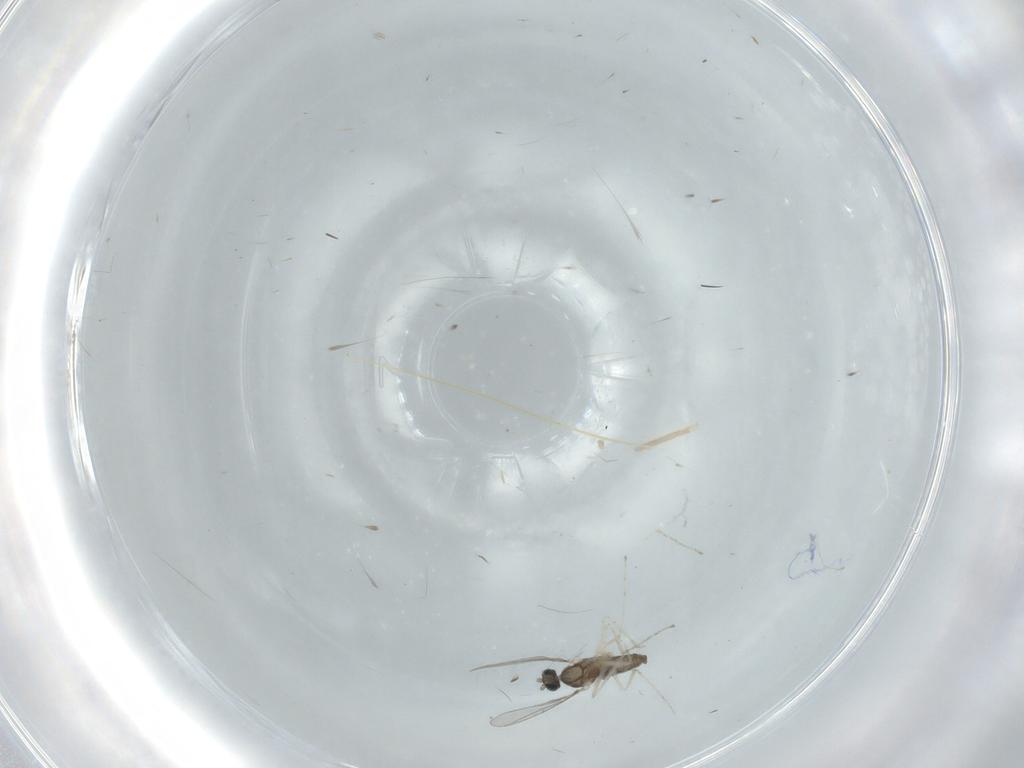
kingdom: Animalia
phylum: Arthropoda
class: Insecta
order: Diptera
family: Cecidomyiidae
